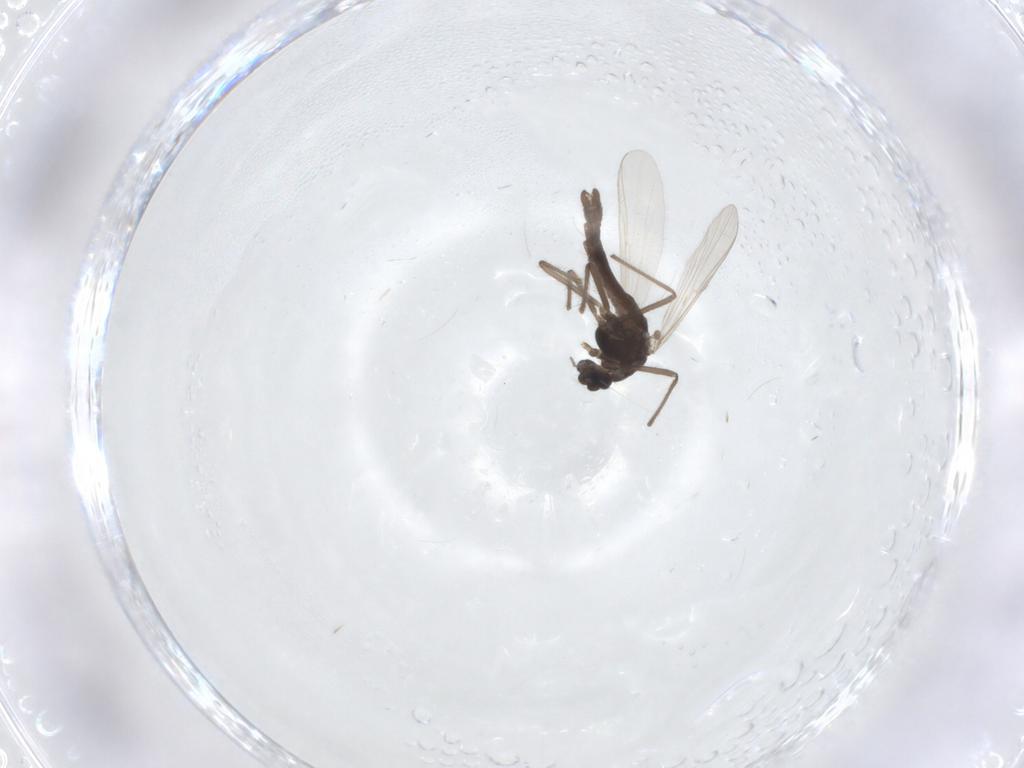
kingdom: Animalia
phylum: Arthropoda
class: Insecta
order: Diptera
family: Chironomidae
